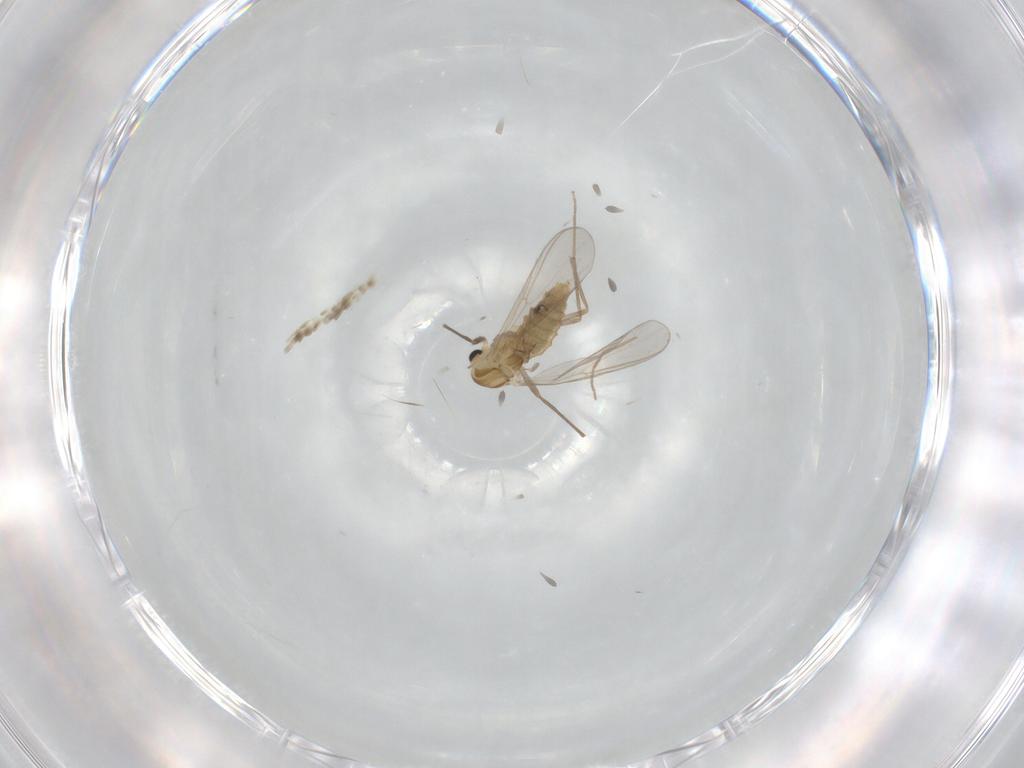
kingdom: Animalia
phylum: Arthropoda
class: Insecta
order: Diptera
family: Chironomidae
